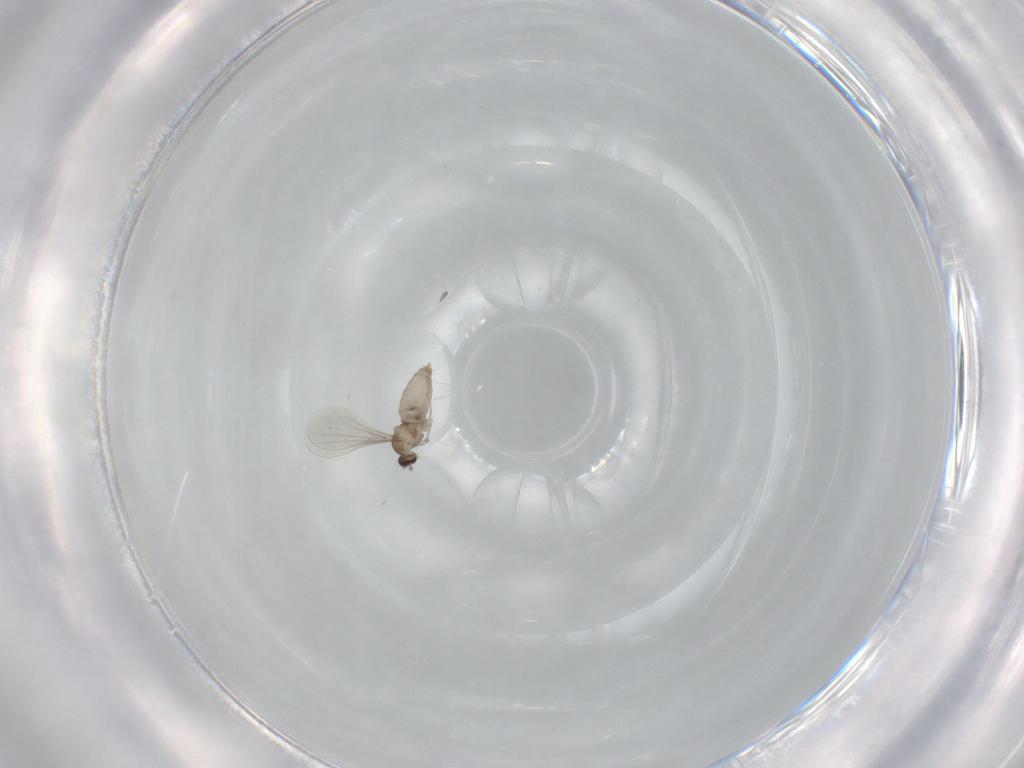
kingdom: Animalia
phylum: Arthropoda
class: Insecta
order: Diptera
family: Cecidomyiidae
